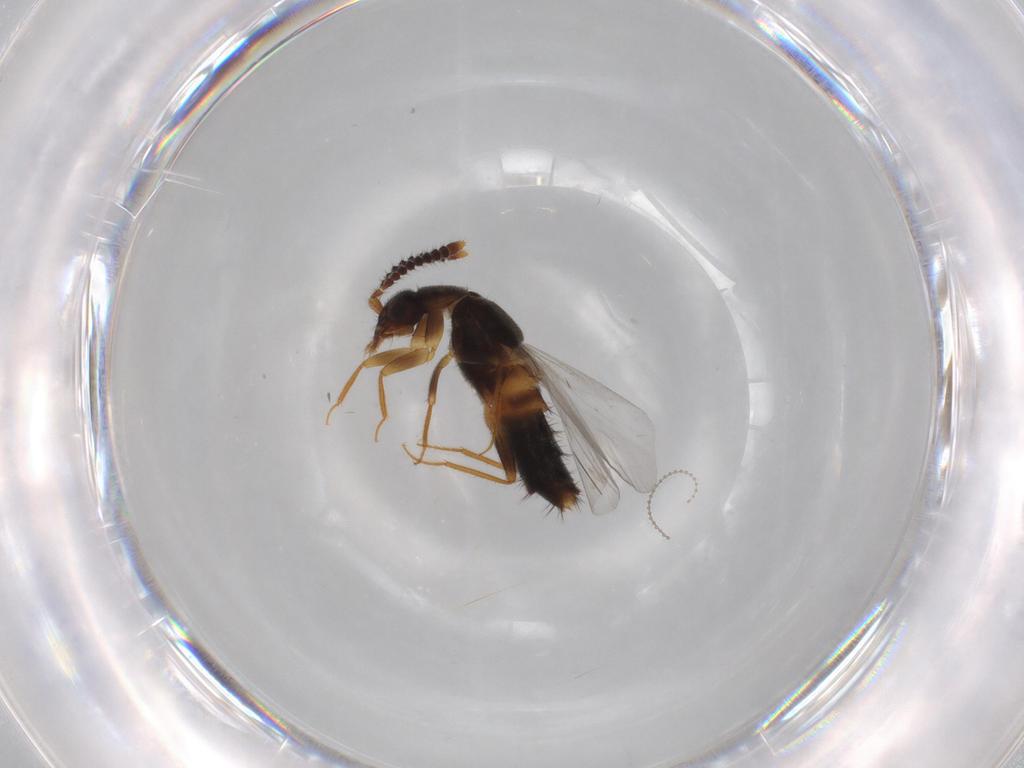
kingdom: Animalia
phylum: Arthropoda
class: Insecta
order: Coleoptera
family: Staphylinidae
